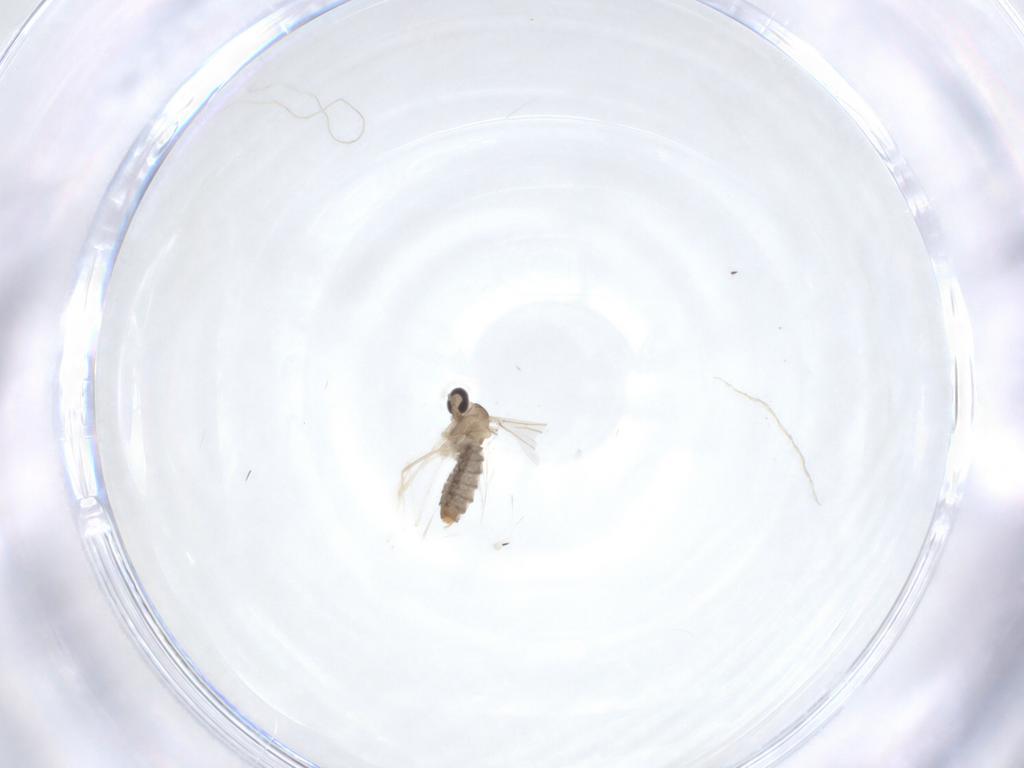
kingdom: Animalia
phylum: Arthropoda
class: Insecta
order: Diptera
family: Cecidomyiidae
